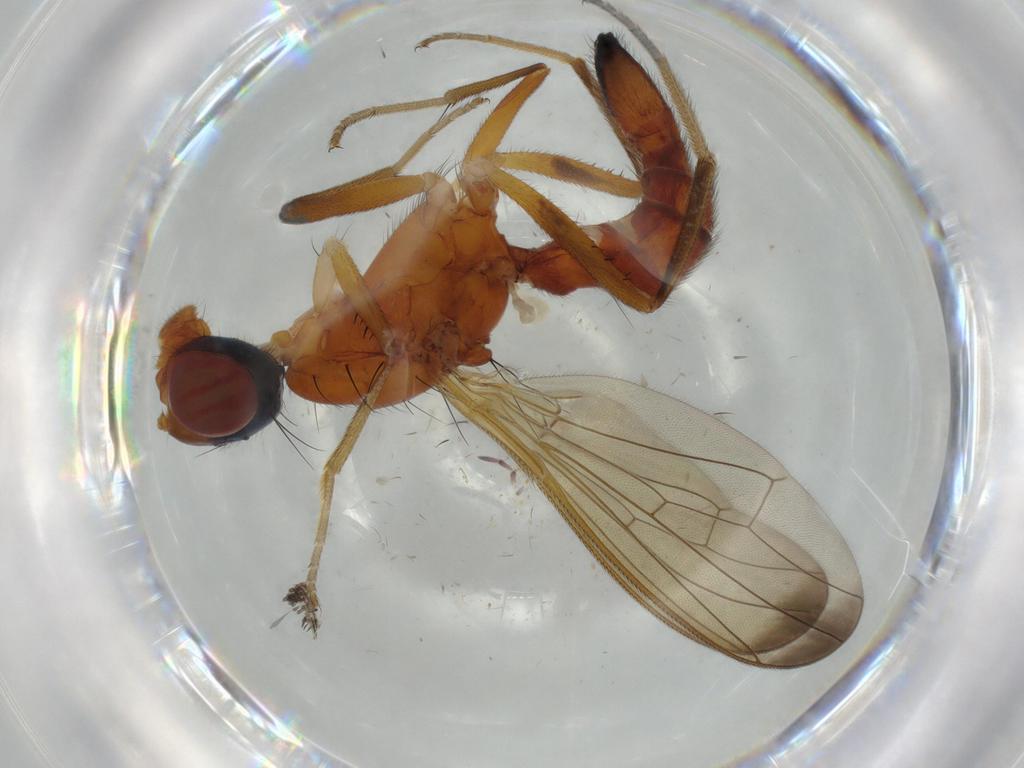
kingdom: Animalia
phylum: Arthropoda
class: Insecta
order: Diptera
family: Richardiidae
